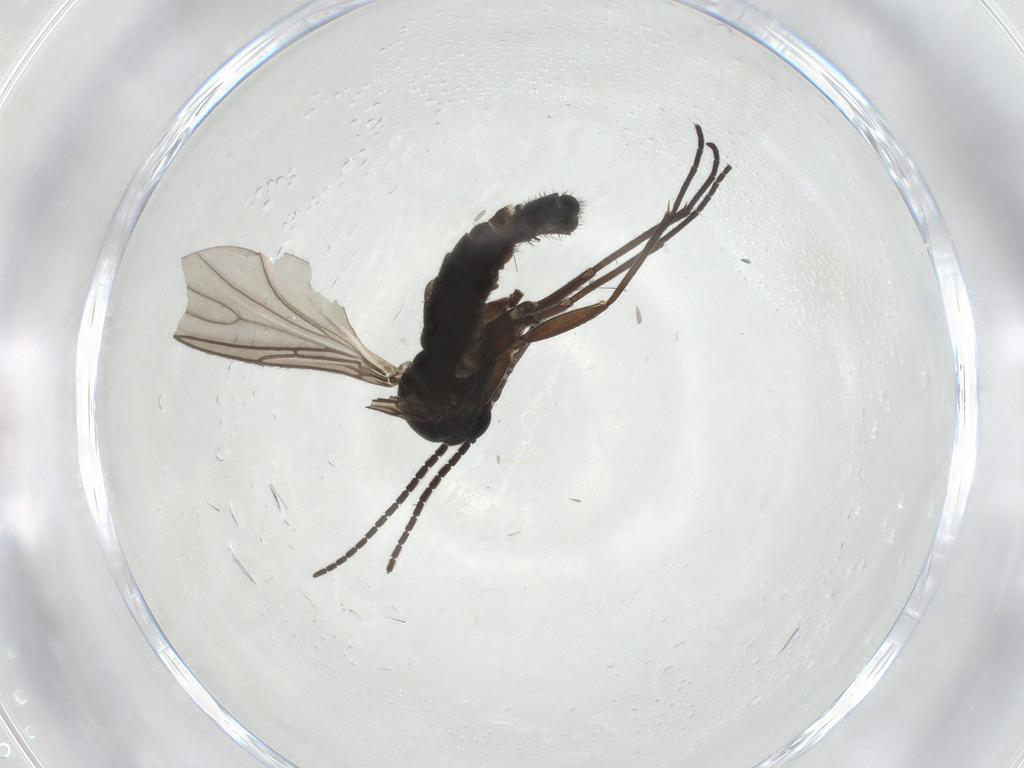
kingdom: Animalia
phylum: Arthropoda
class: Insecta
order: Diptera
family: Sciaridae
